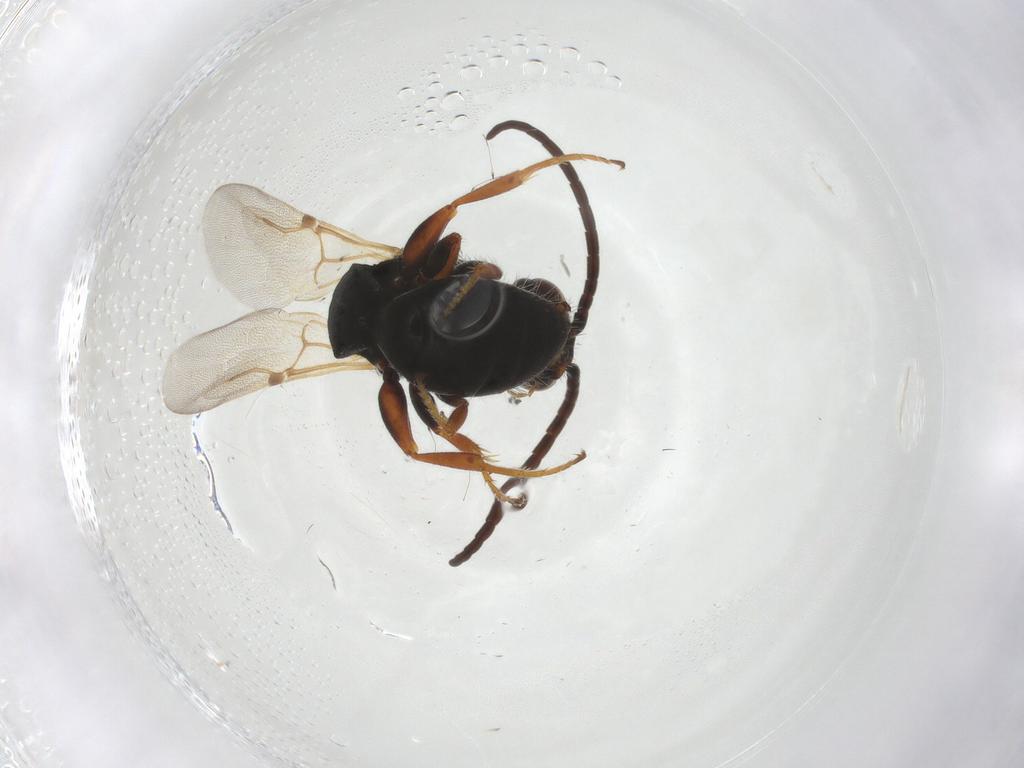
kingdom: Animalia
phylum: Arthropoda
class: Insecta
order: Hymenoptera
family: Bethylidae
